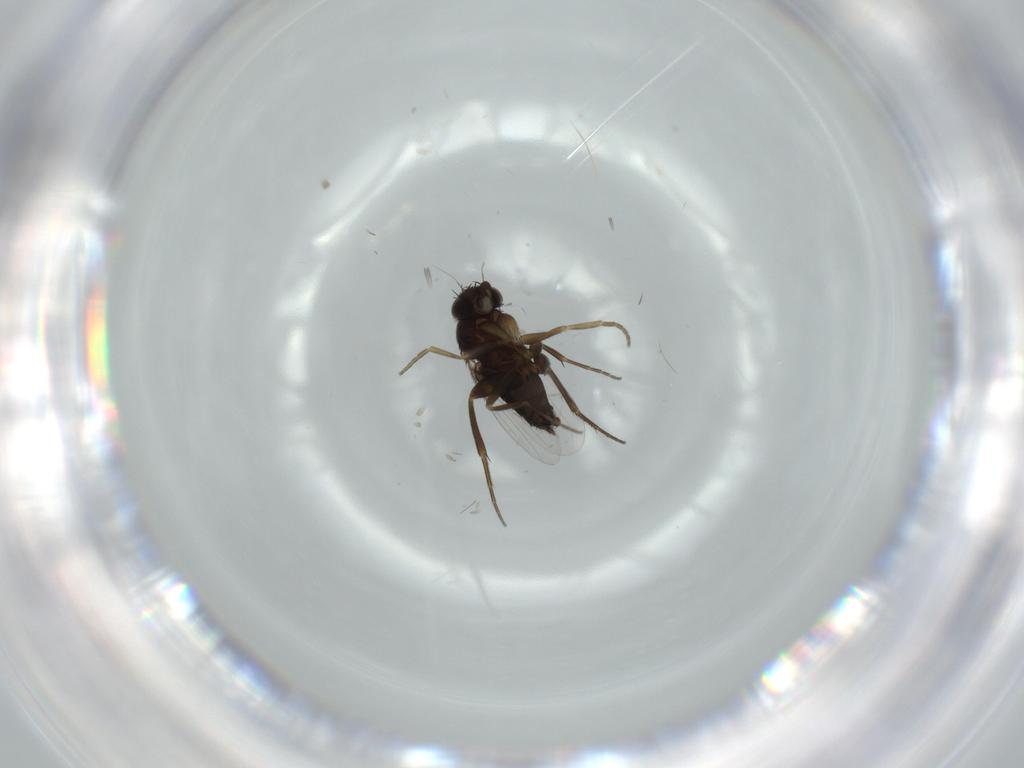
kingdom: Animalia
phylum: Arthropoda
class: Insecta
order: Diptera
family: Phoridae
